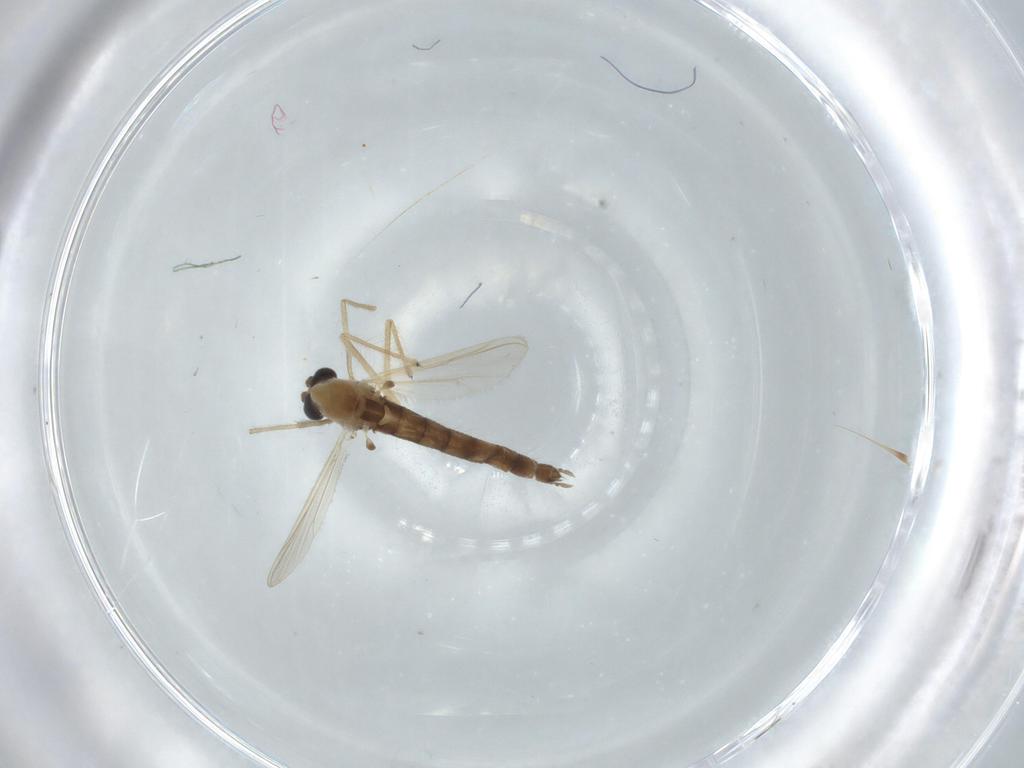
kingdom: Animalia
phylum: Arthropoda
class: Insecta
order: Diptera
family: Chironomidae
